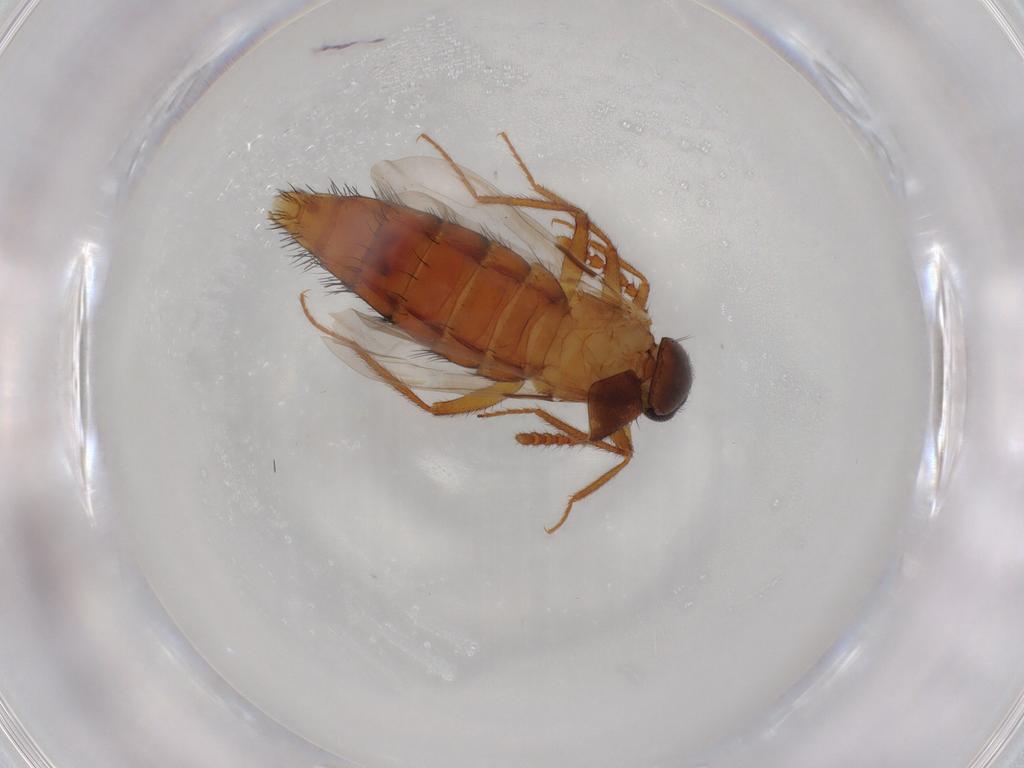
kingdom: Animalia
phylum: Arthropoda
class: Insecta
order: Coleoptera
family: Staphylinidae
